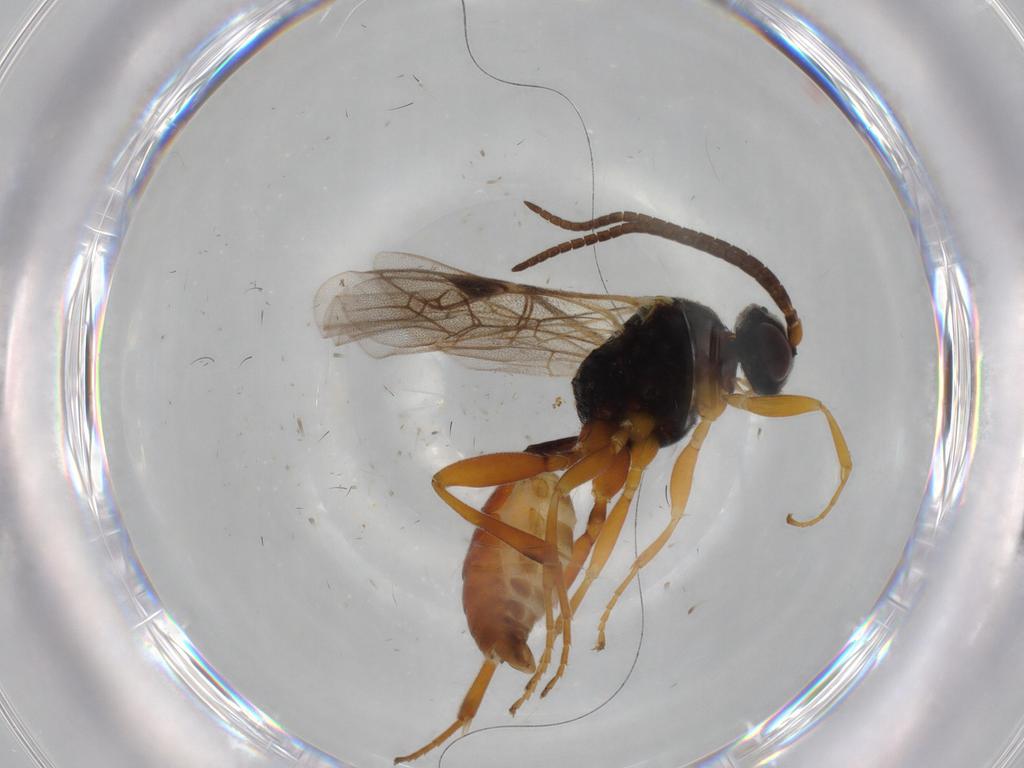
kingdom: Animalia
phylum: Arthropoda
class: Insecta
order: Hymenoptera
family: Ichneumonidae
